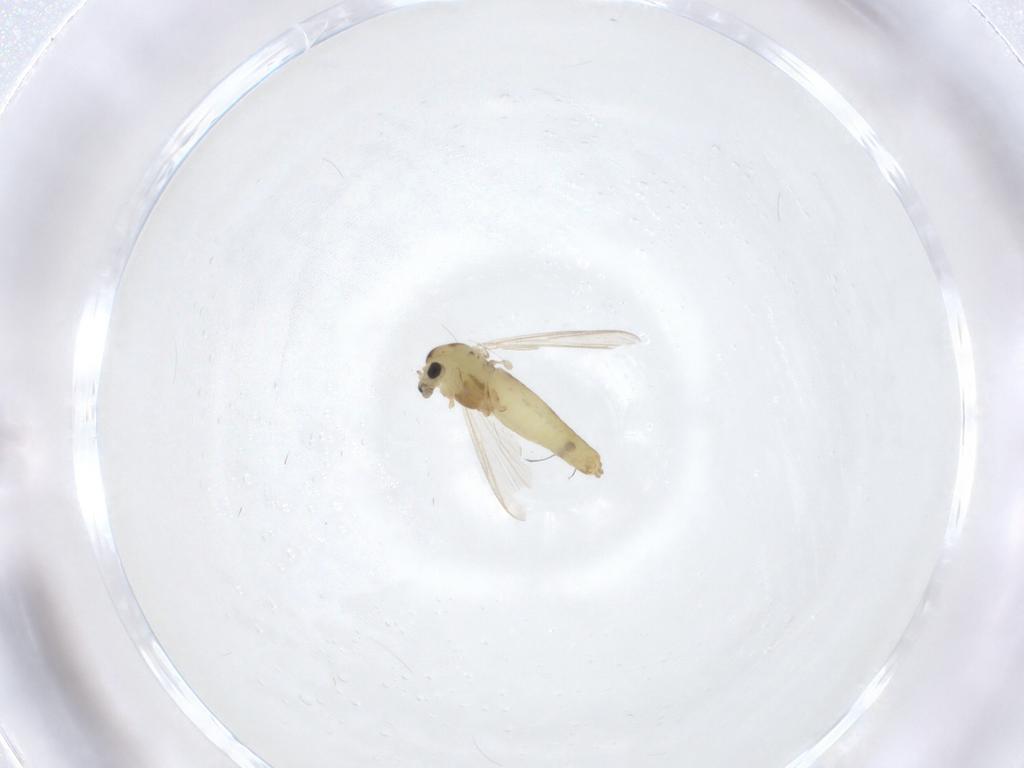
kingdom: Animalia
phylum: Arthropoda
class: Insecta
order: Diptera
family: Chironomidae
